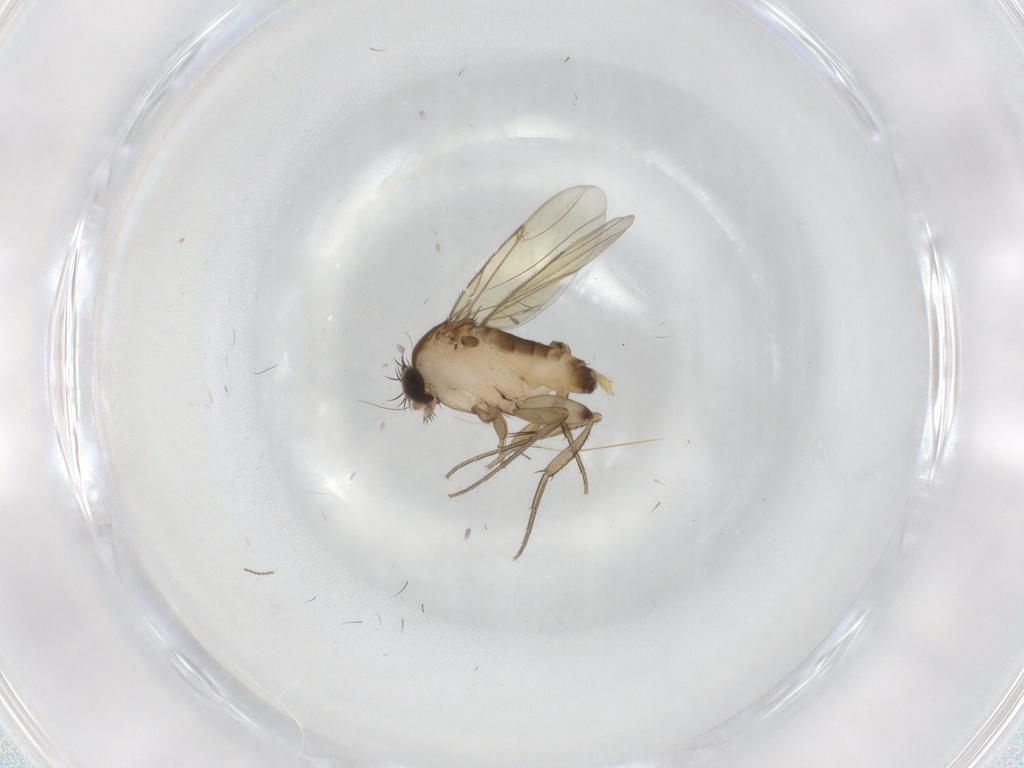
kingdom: Animalia
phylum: Arthropoda
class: Insecta
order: Diptera
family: Phoridae
